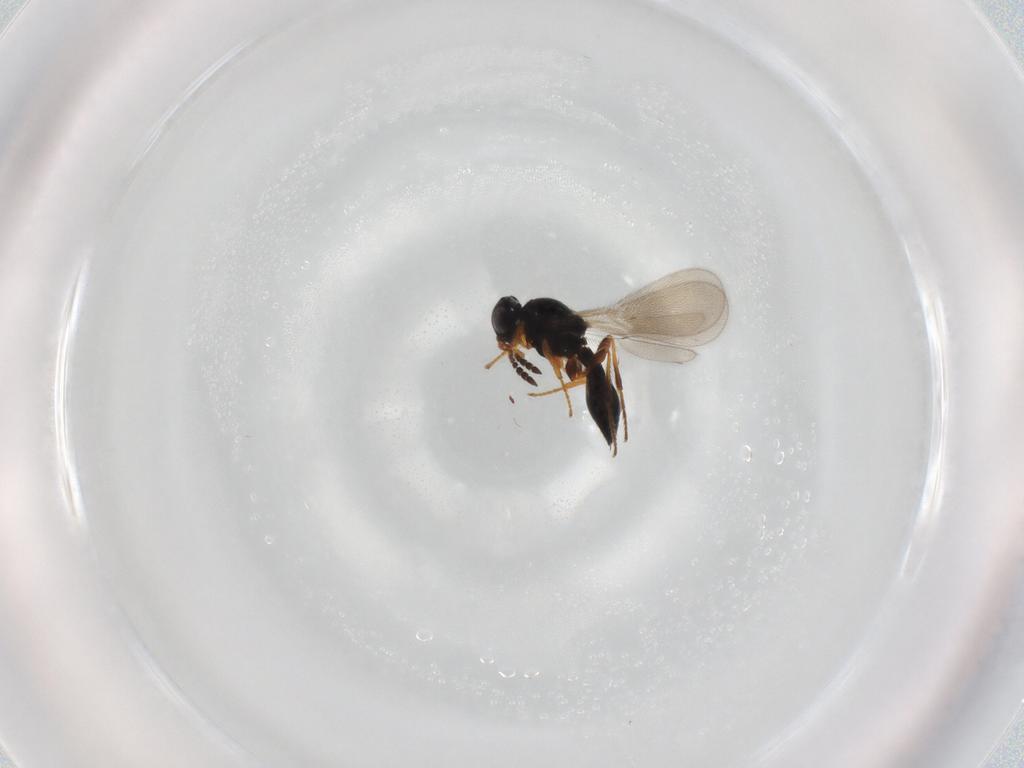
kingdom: Animalia
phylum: Arthropoda
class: Insecta
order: Hymenoptera
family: Platygastridae
